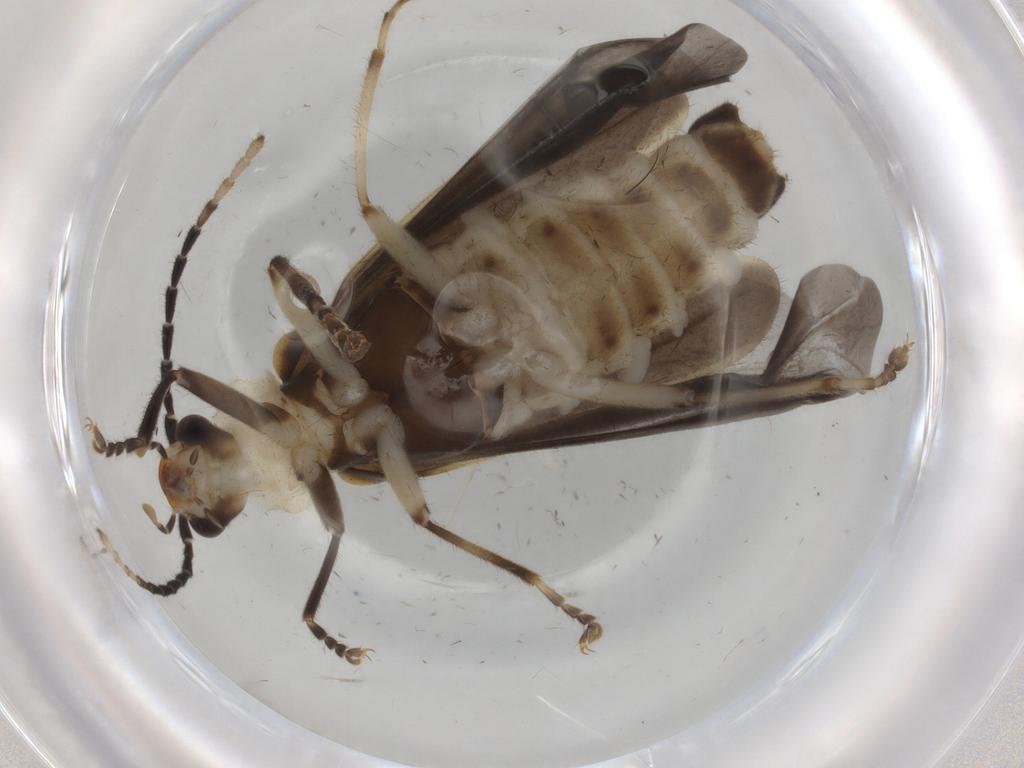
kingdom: Animalia
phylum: Arthropoda
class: Insecta
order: Coleoptera
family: Cantharidae
